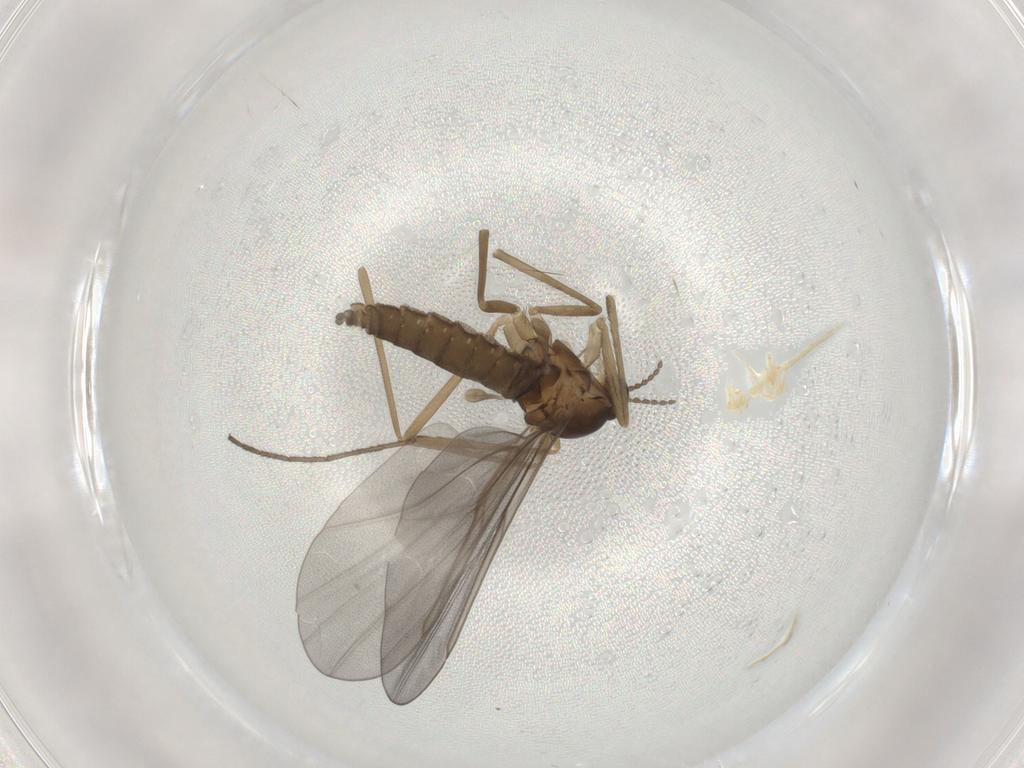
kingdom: Animalia
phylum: Arthropoda
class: Insecta
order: Diptera
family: Cecidomyiidae
